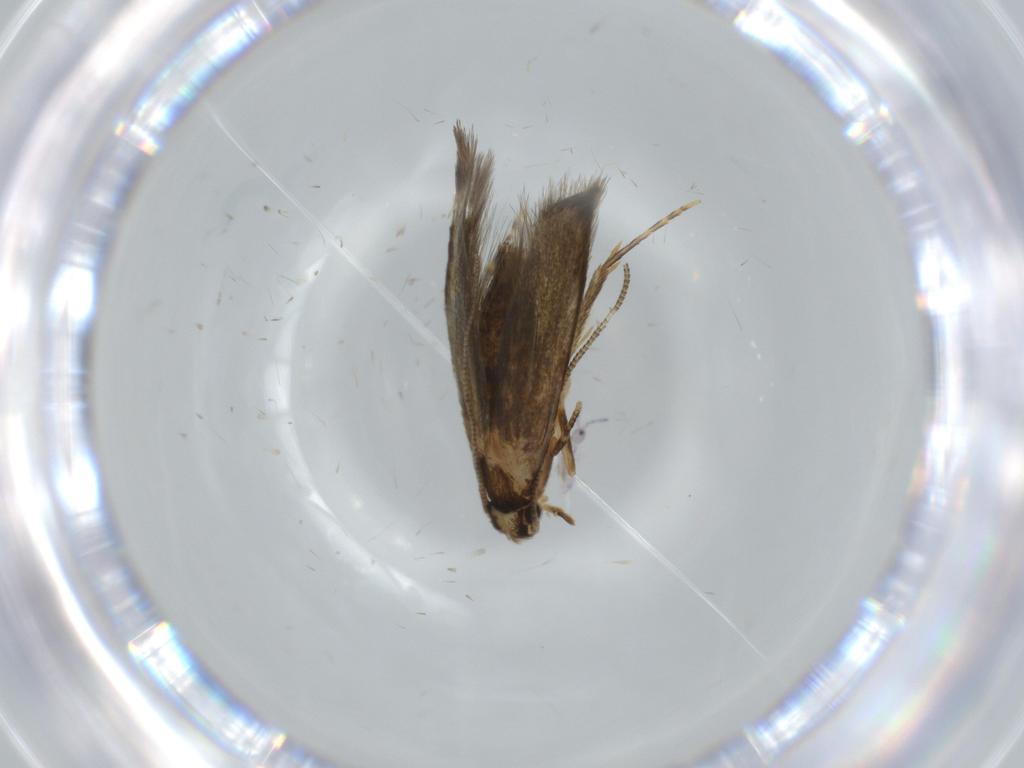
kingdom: Animalia
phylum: Arthropoda
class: Insecta
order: Lepidoptera
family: Tineidae
